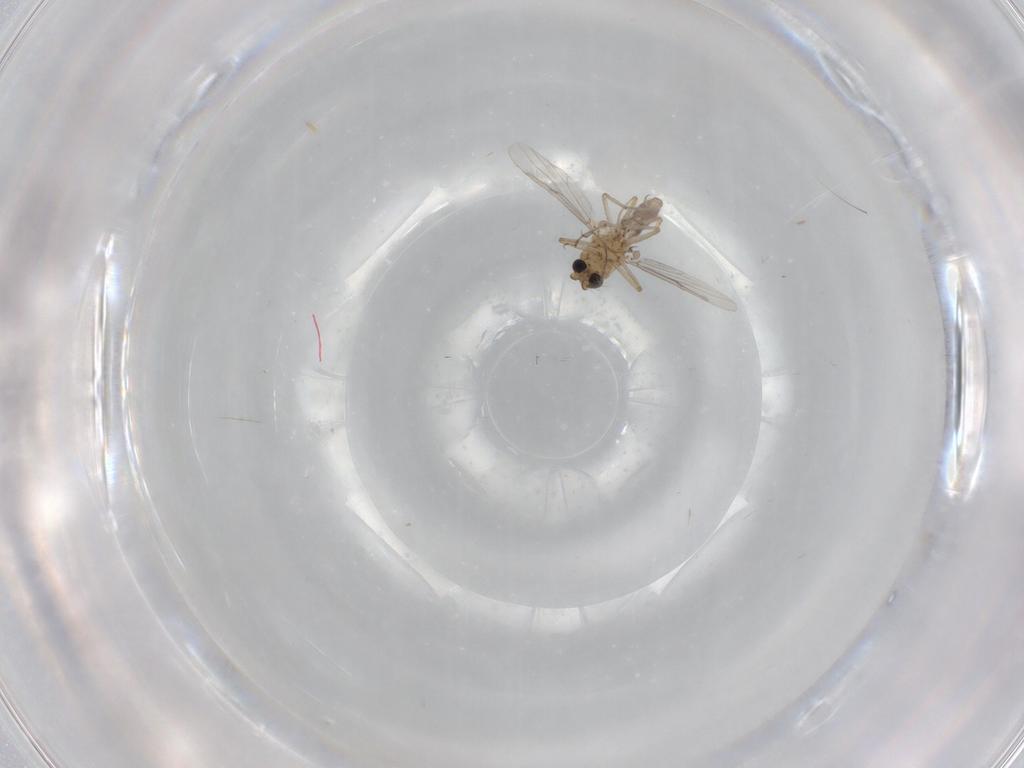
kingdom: Animalia
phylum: Arthropoda
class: Insecta
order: Diptera
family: Ceratopogonidae
